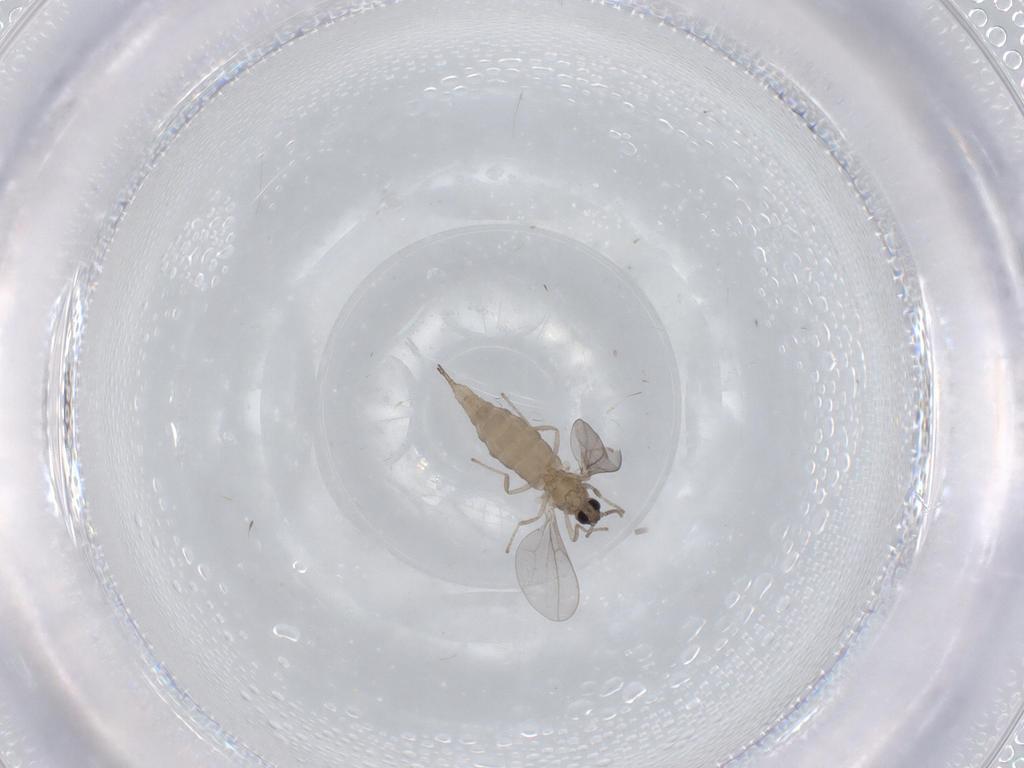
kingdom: Animalia
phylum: Arthropoda
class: Insecta
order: Diptera
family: Cecidomyiidae
